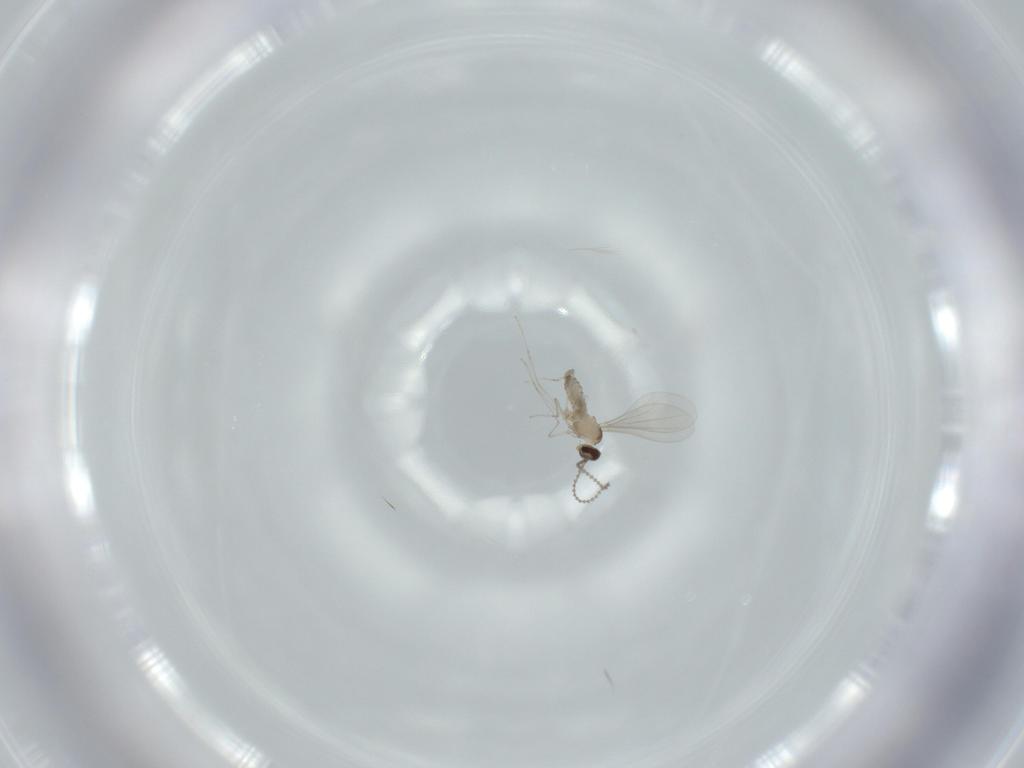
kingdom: Animalia
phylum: Arthropoda
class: Insecta
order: Diptera
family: Cecidomyiidae
